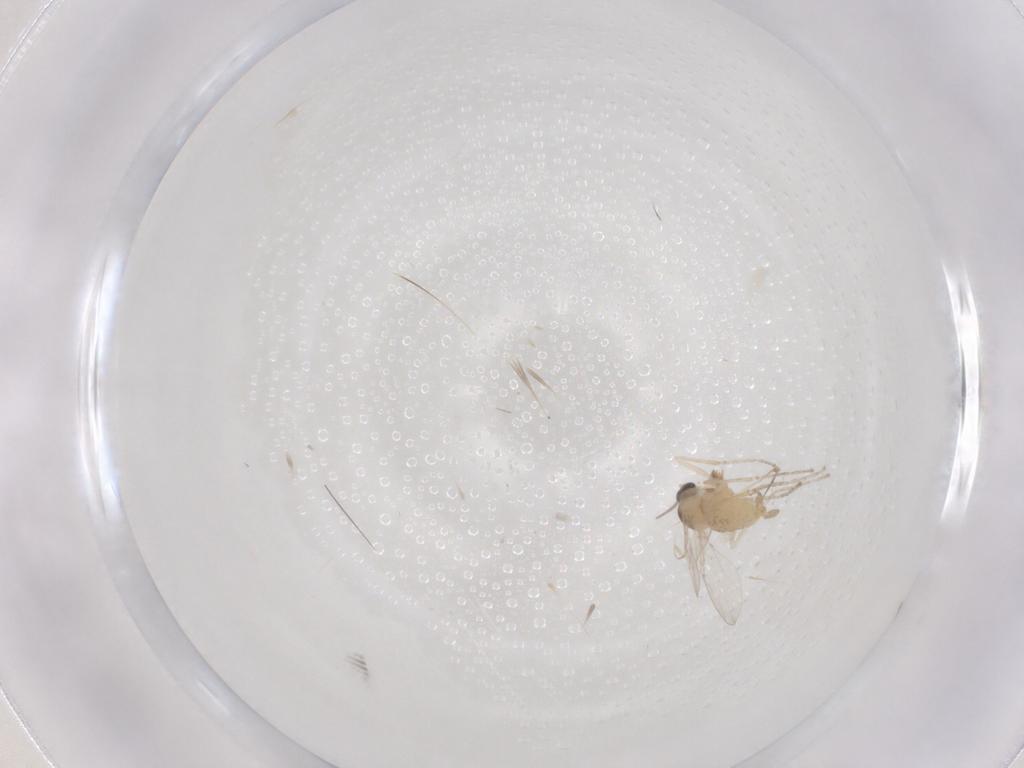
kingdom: Animalia
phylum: Arthropoda
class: Insecta
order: Diptera
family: Cecidomyiidae
